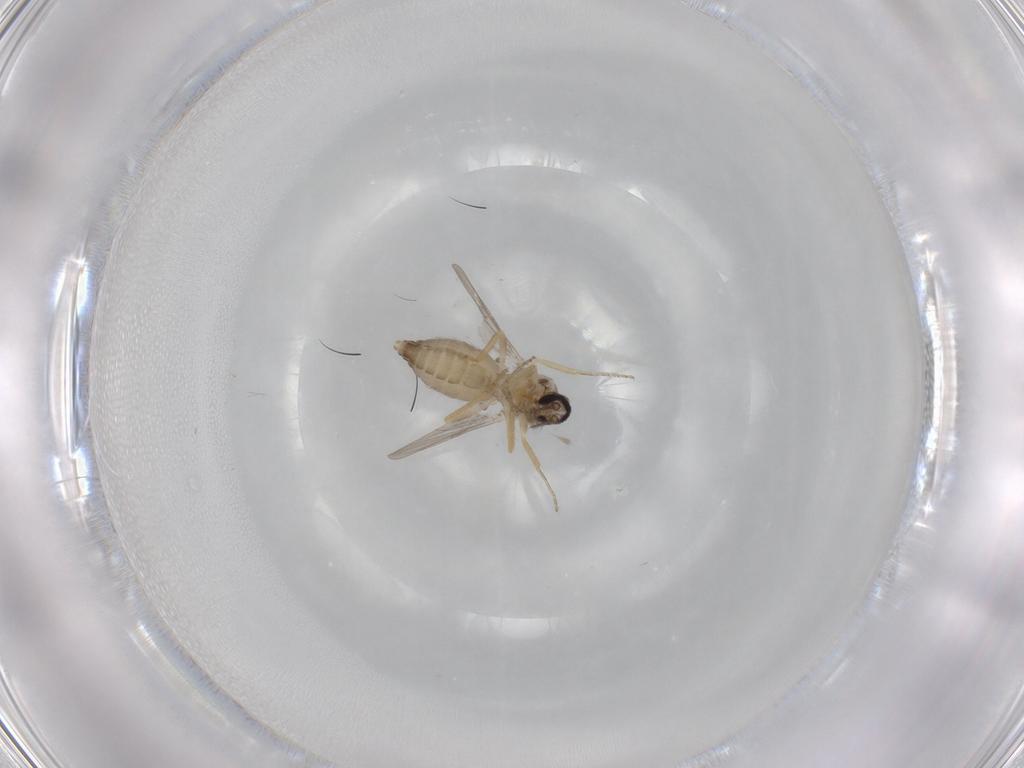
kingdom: Animalia
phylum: Arthropoda
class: Insecta
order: Diptera
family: Ceratopogonidae
